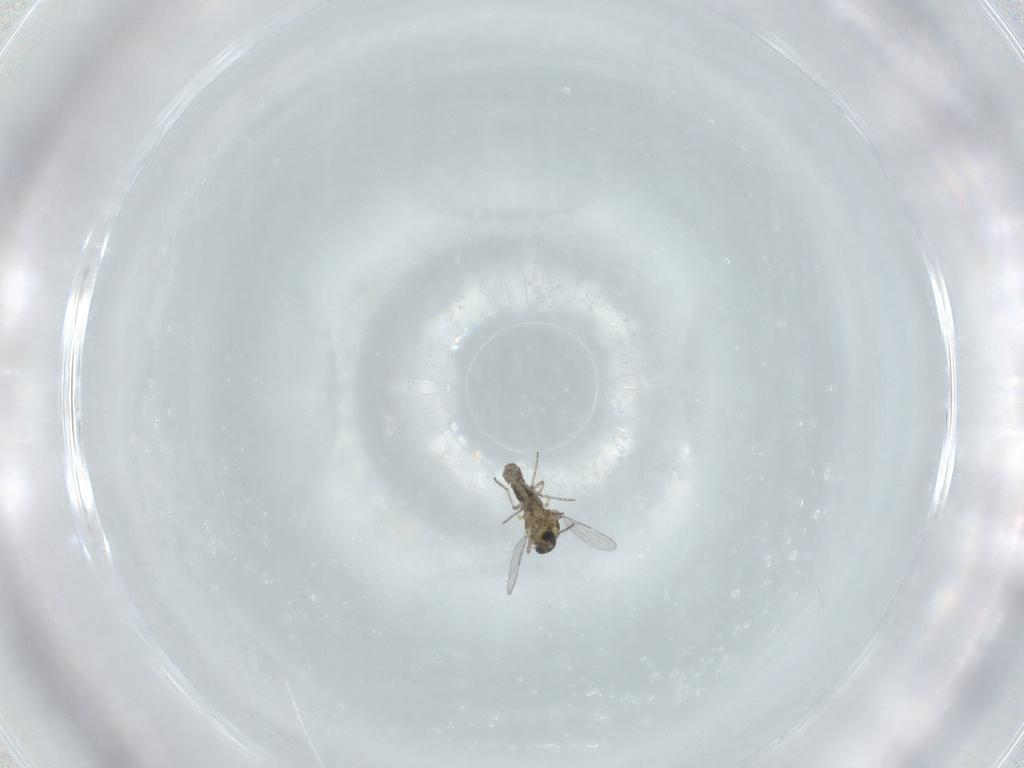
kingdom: Animalia
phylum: Arthropoda
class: Insecta
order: Diptera
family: Ceratopogonidae
